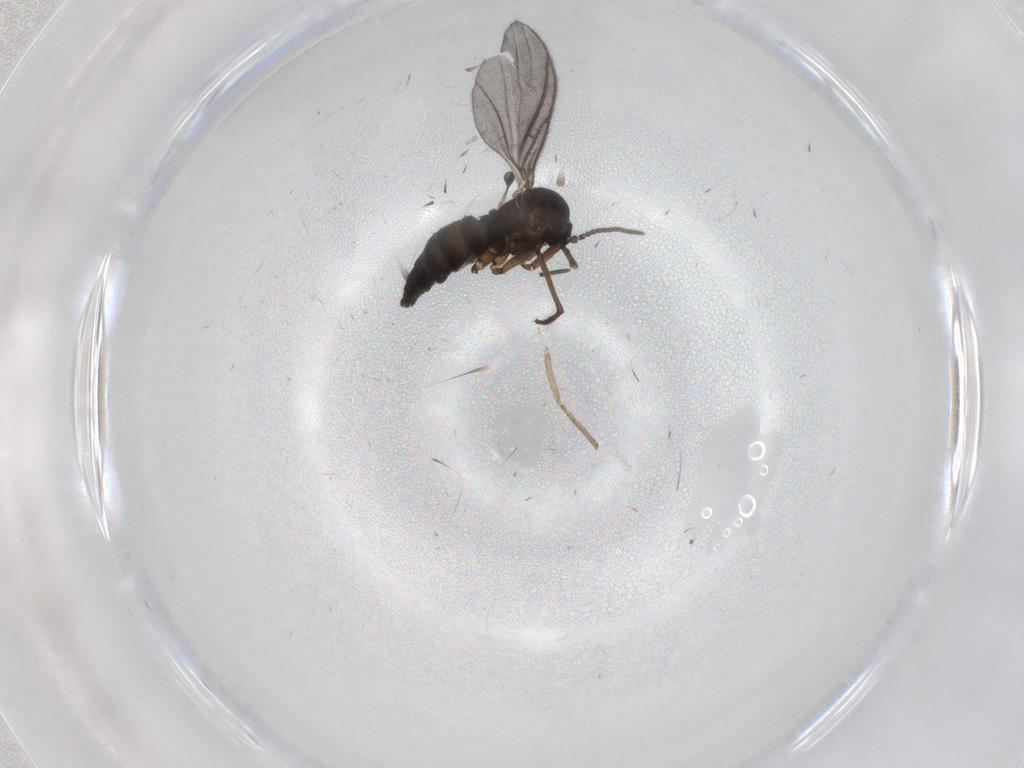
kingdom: Animalia
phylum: Arthropoda
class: Insecta
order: Diptera
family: Sciaridae
